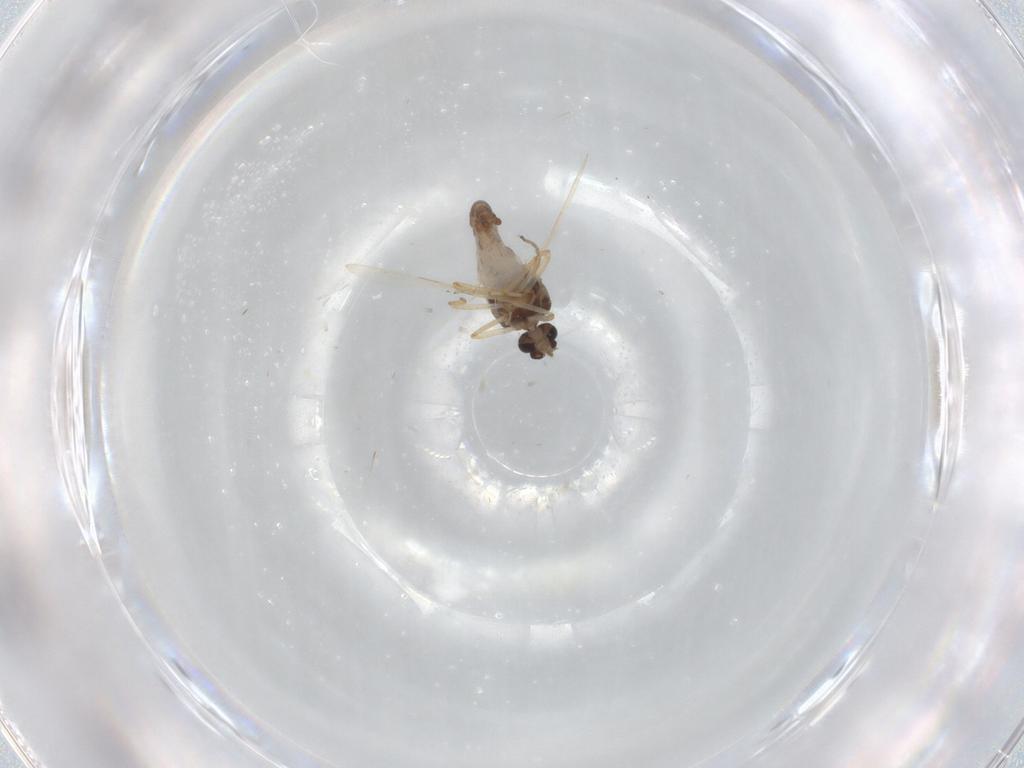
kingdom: Animalia
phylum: Arthropoda
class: Insecta
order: Diptera
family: Ceratopogonidae
